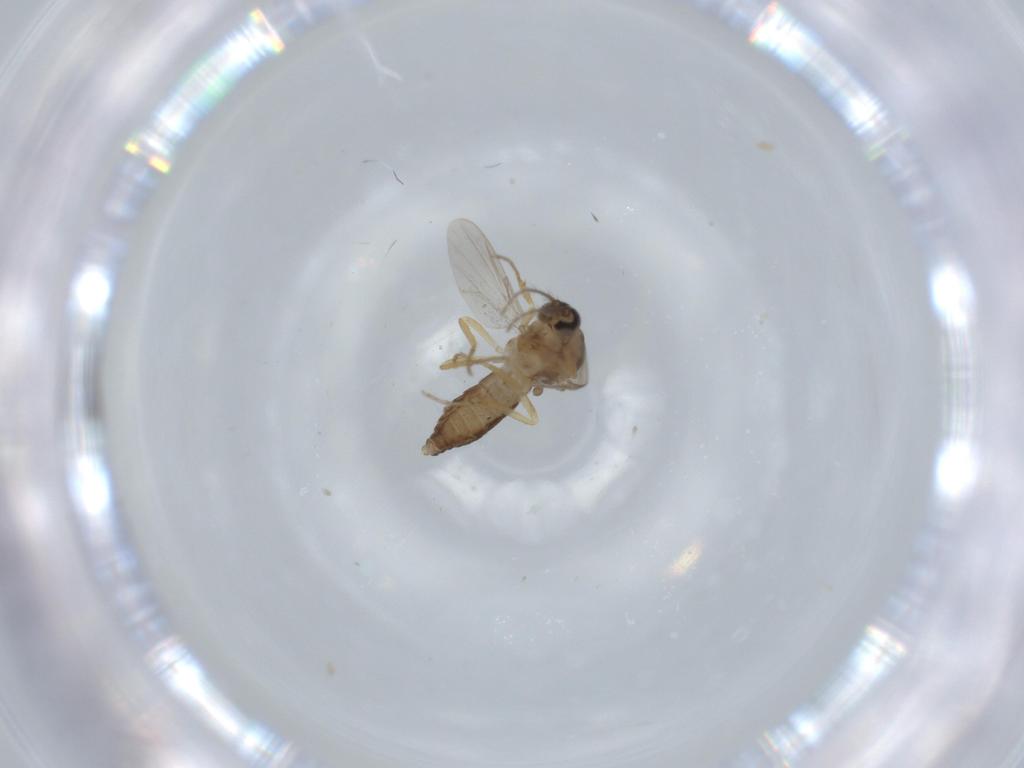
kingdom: Animalia
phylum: Arthropoda
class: Insecta
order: Diptera
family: Ceratopogonidae
